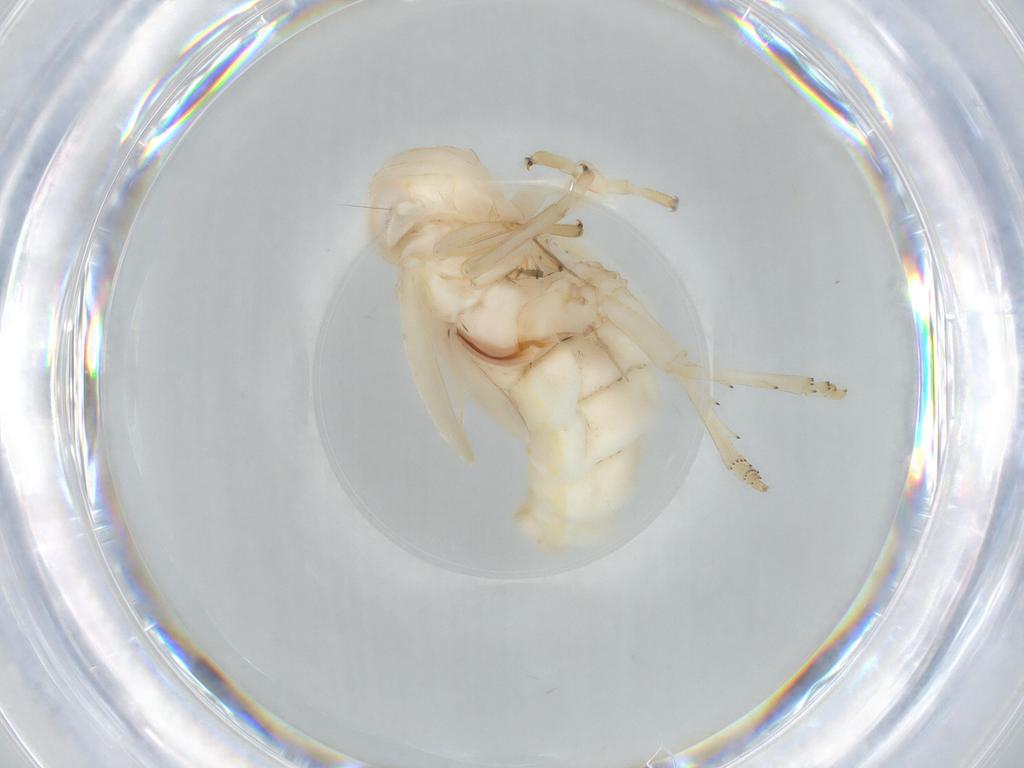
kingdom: Animalia
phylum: Arthropoda
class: Insecta
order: Hemiptera
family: Nogodinidae
